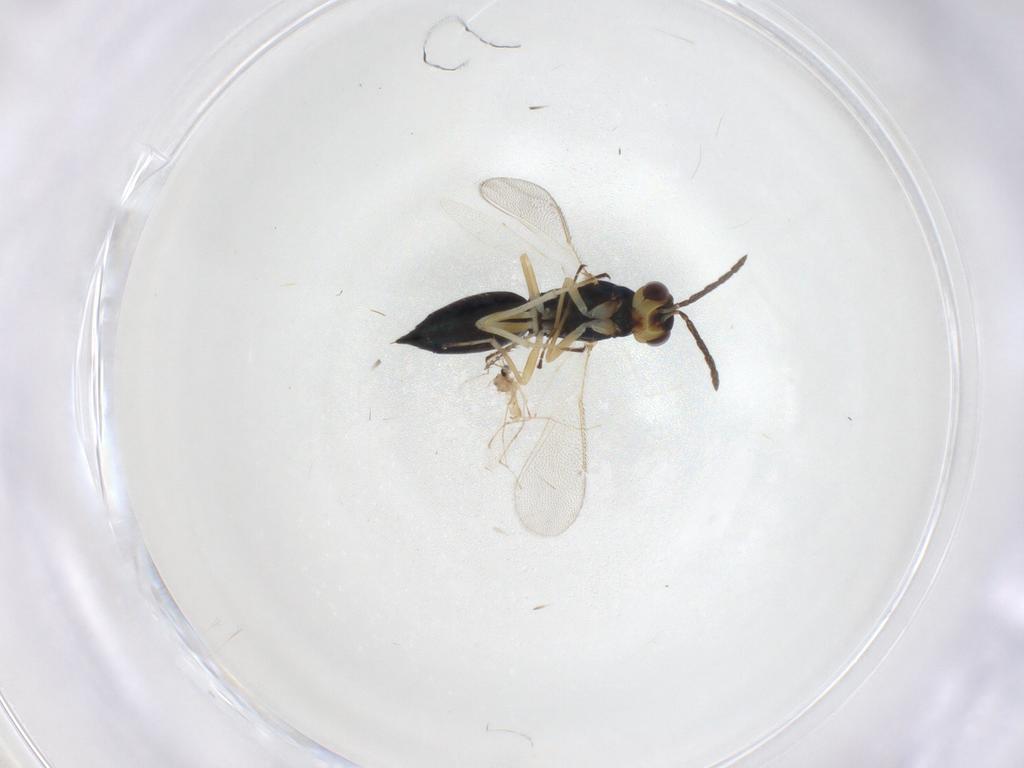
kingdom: Animalia
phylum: Arthropoda
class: Insecta
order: Hymenoptera
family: Eulophidae
